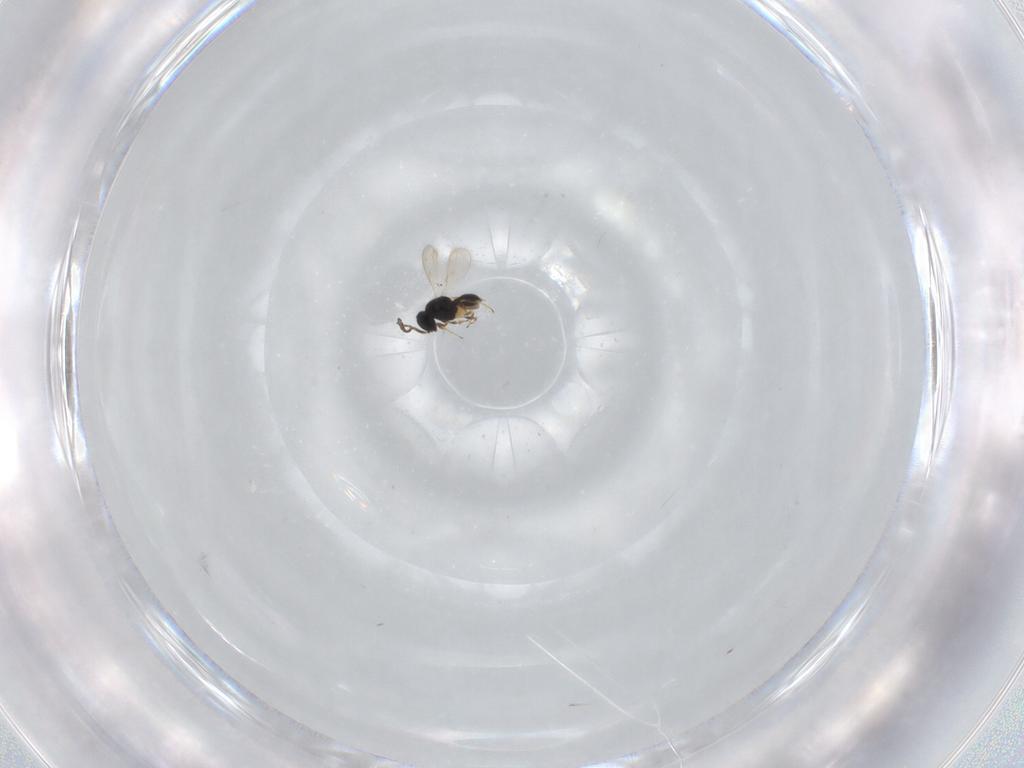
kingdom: Animalia
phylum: Arthropoda
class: Insecta
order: Hymenoptera
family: Scelionidae
